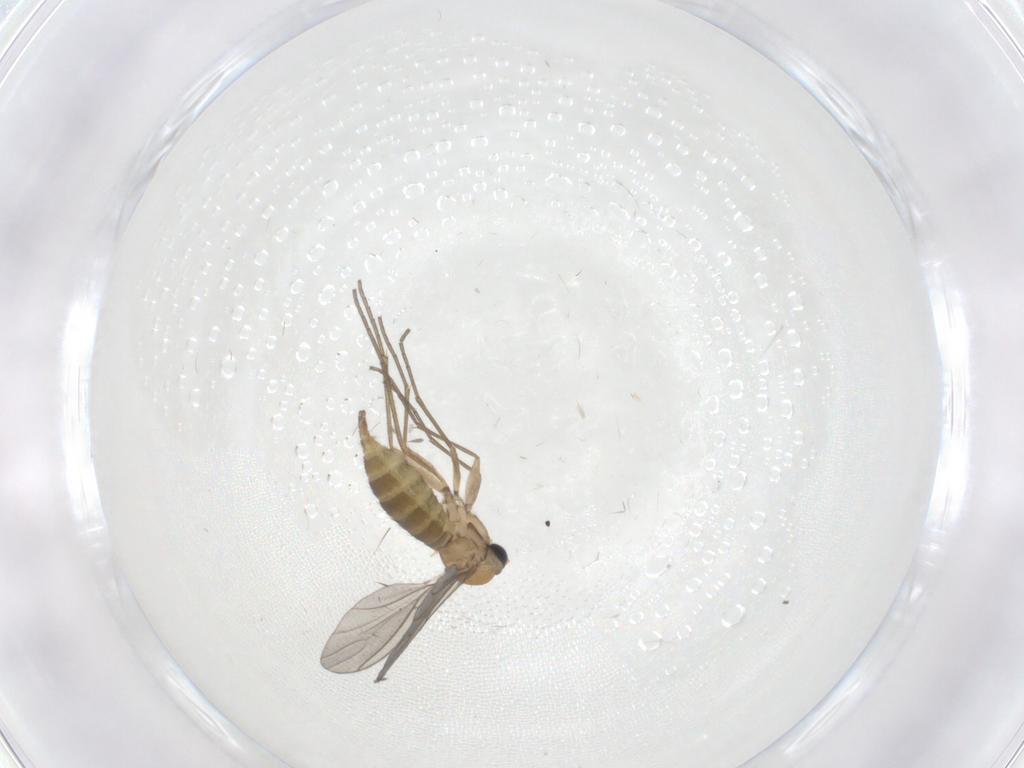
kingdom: Animalia
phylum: Arthropoda
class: Insecta
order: Diptera
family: Sciaridae
